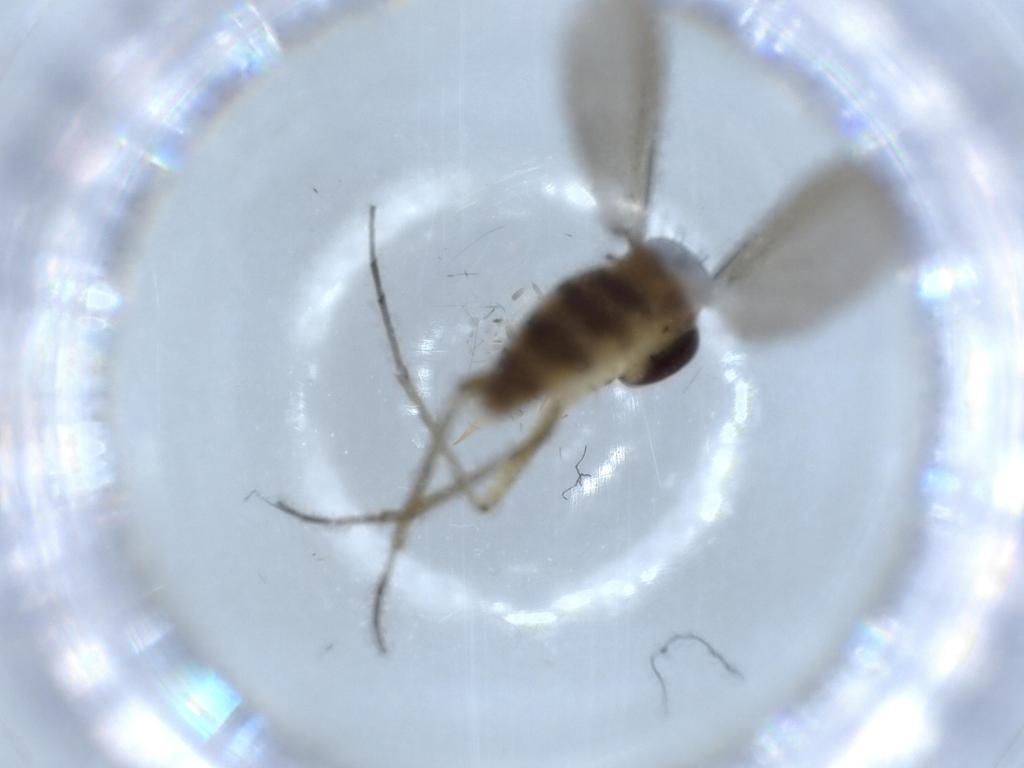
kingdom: Animalia
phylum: Arthropoda
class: Insecta
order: Diptera
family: Dolichopodidae
